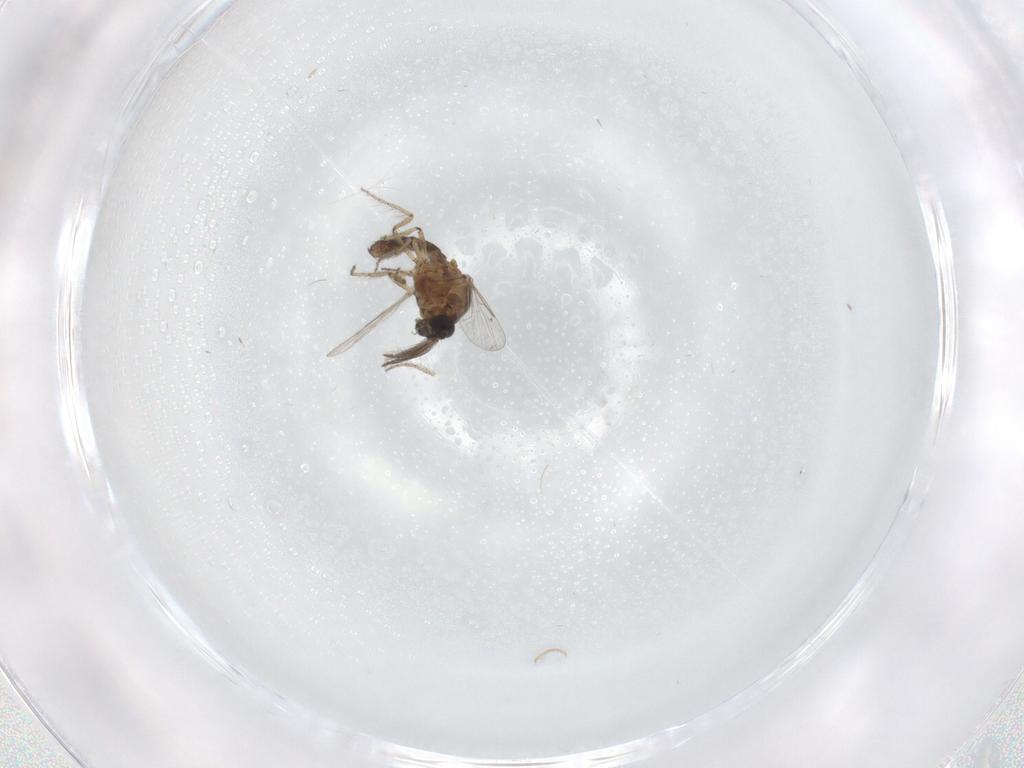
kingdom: Animalia
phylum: Arthropoda
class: Insecta
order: Diptera
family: Ceratopogonidae
